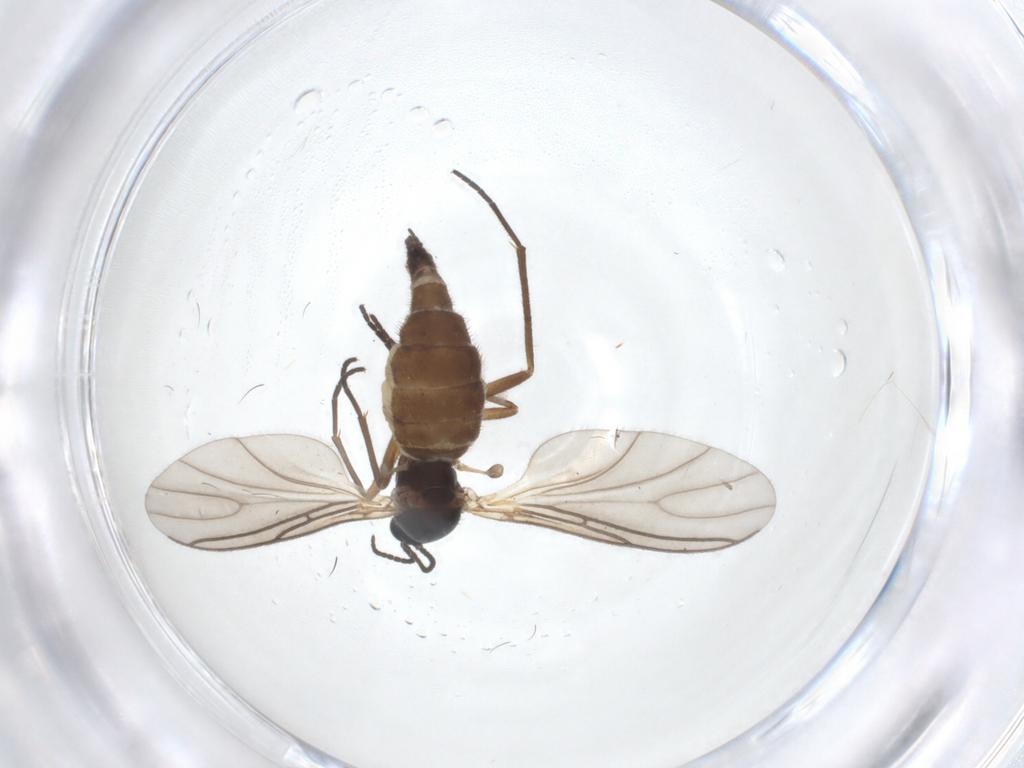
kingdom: Animalia
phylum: Arthropoda
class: Insecta
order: Diptera
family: Sciaridae
